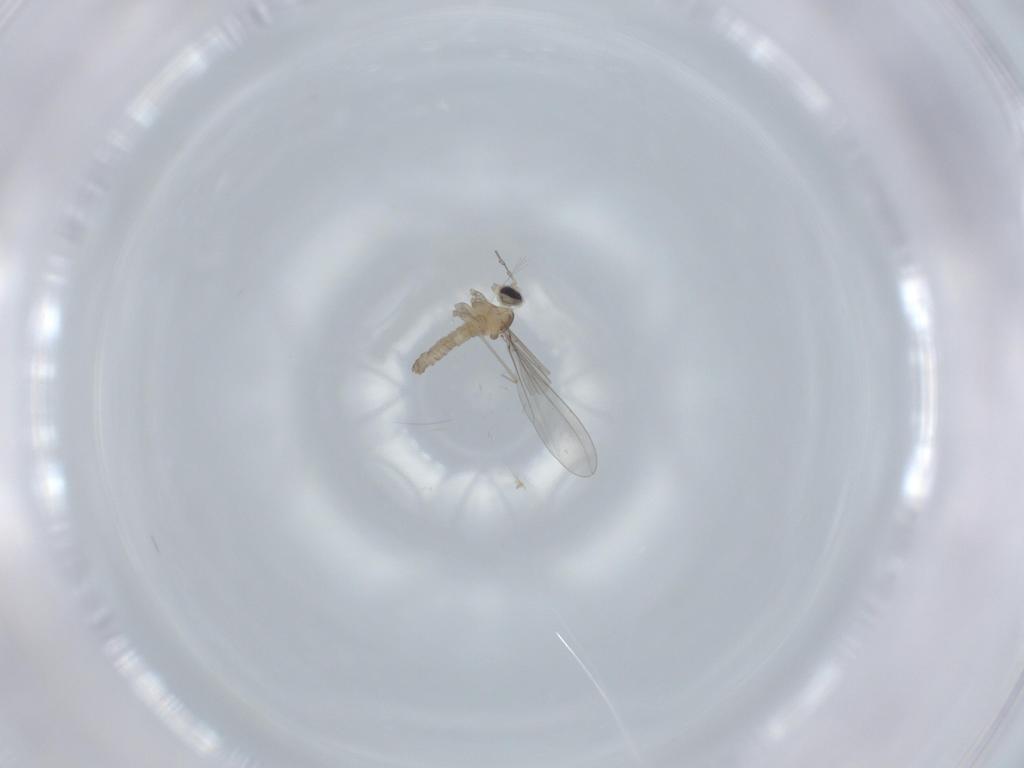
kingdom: Animalia
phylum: Arthropoda
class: Insecta
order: Diptera
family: Cecidomyiidae
